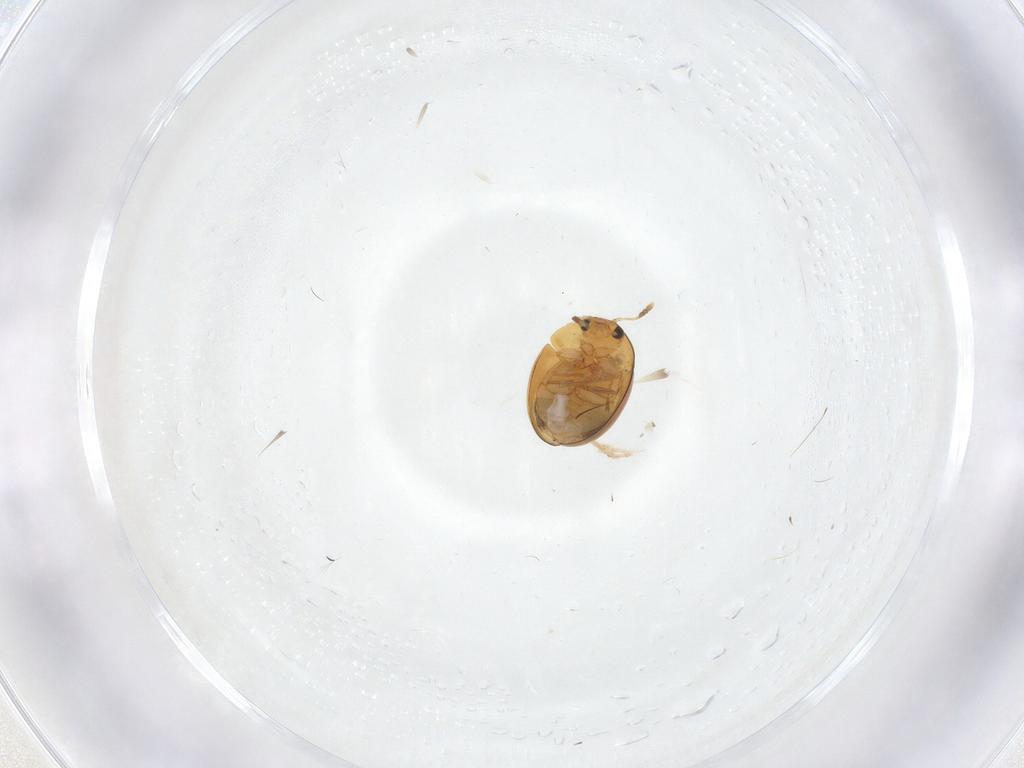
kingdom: Animalia
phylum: Arthropoda
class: Insecta
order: Coleoptera
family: Phalacridae
